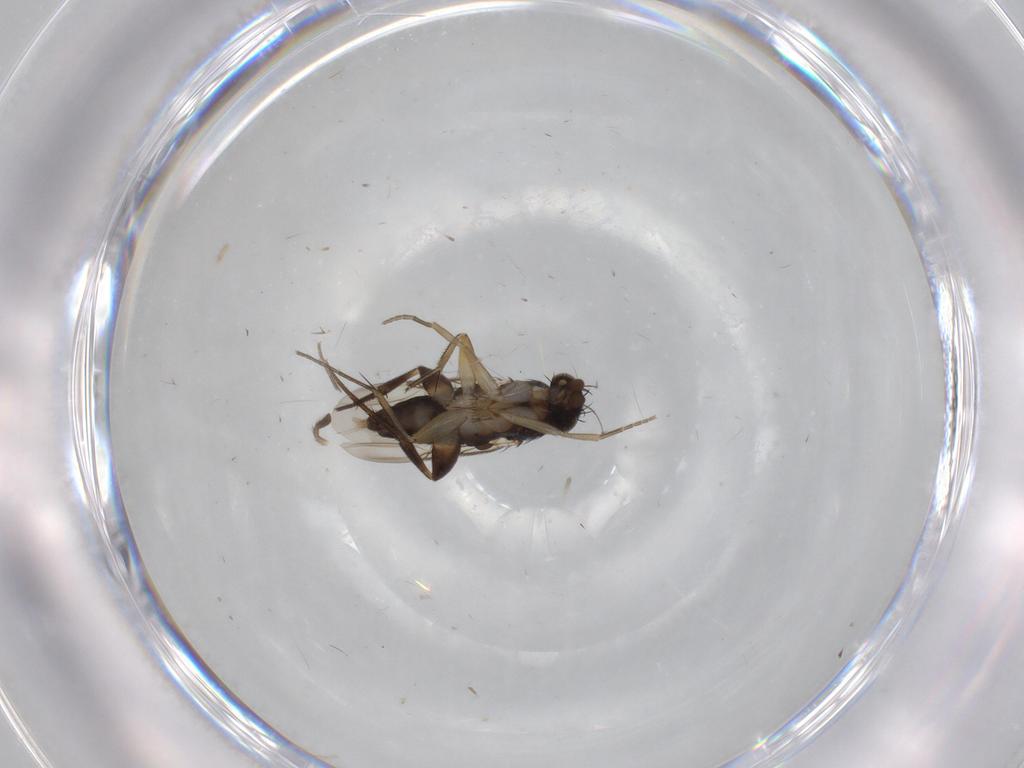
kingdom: Animalia
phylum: Arthropoda
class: Insecta
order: Diptera
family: Phoridae
